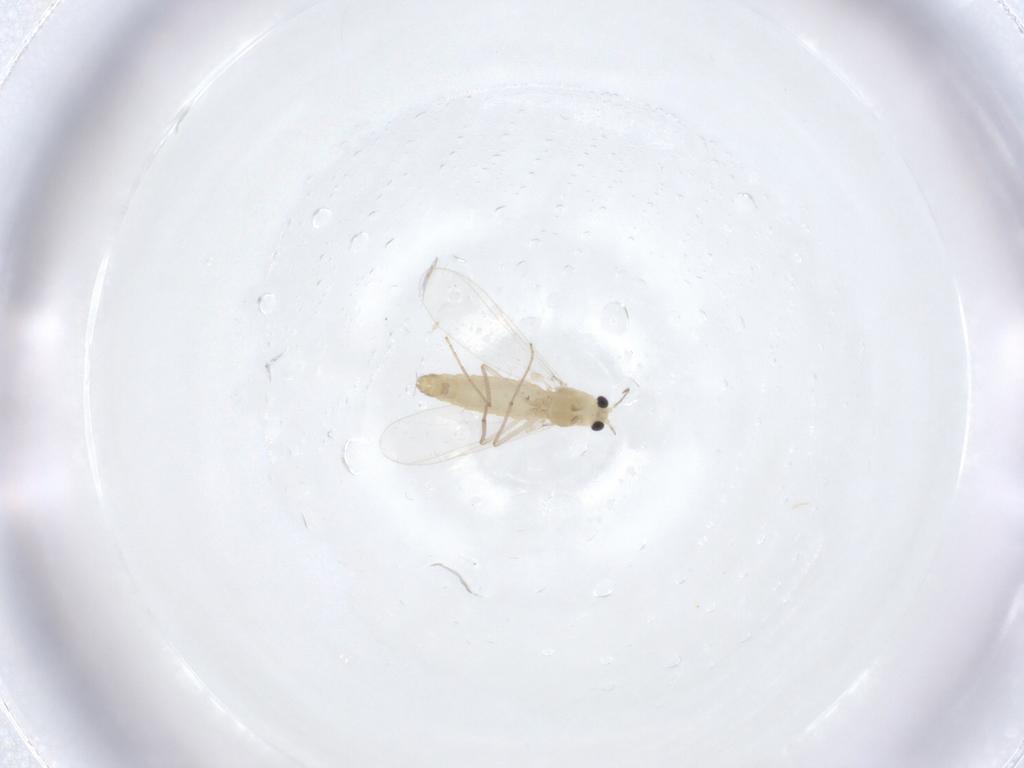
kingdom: Animalia
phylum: Arthropoda
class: Insecta
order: Diptera
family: Chironomidae
